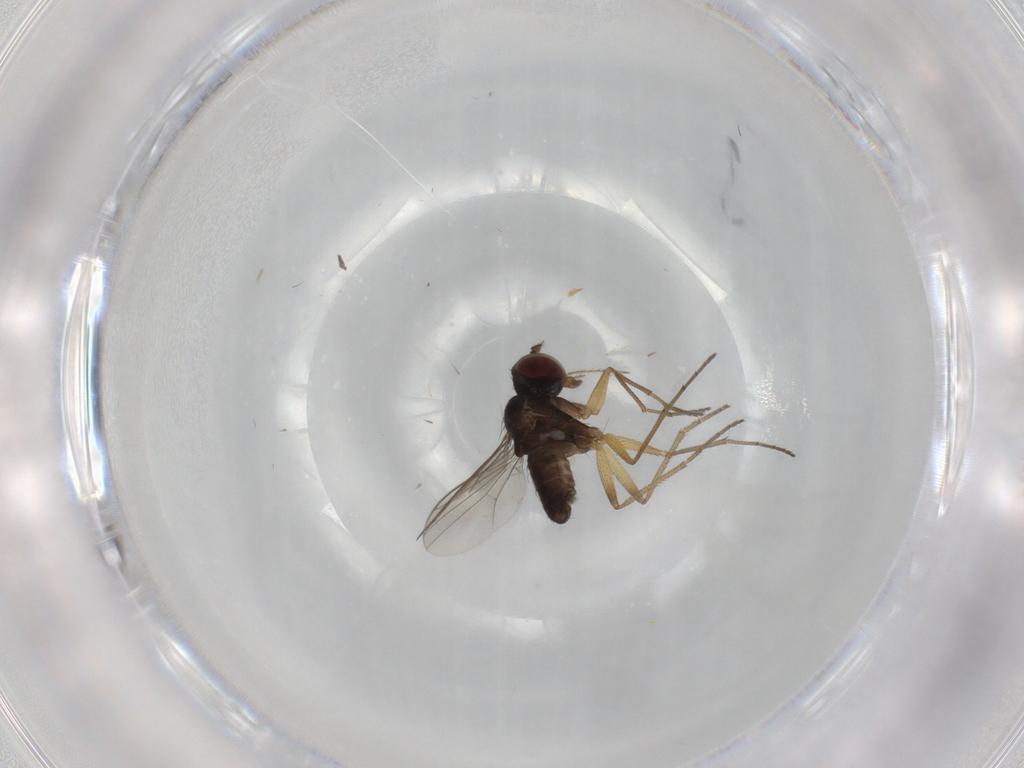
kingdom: Animalia
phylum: Arthropoda
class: Insecta
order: Diptera
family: Dolichopodidae
